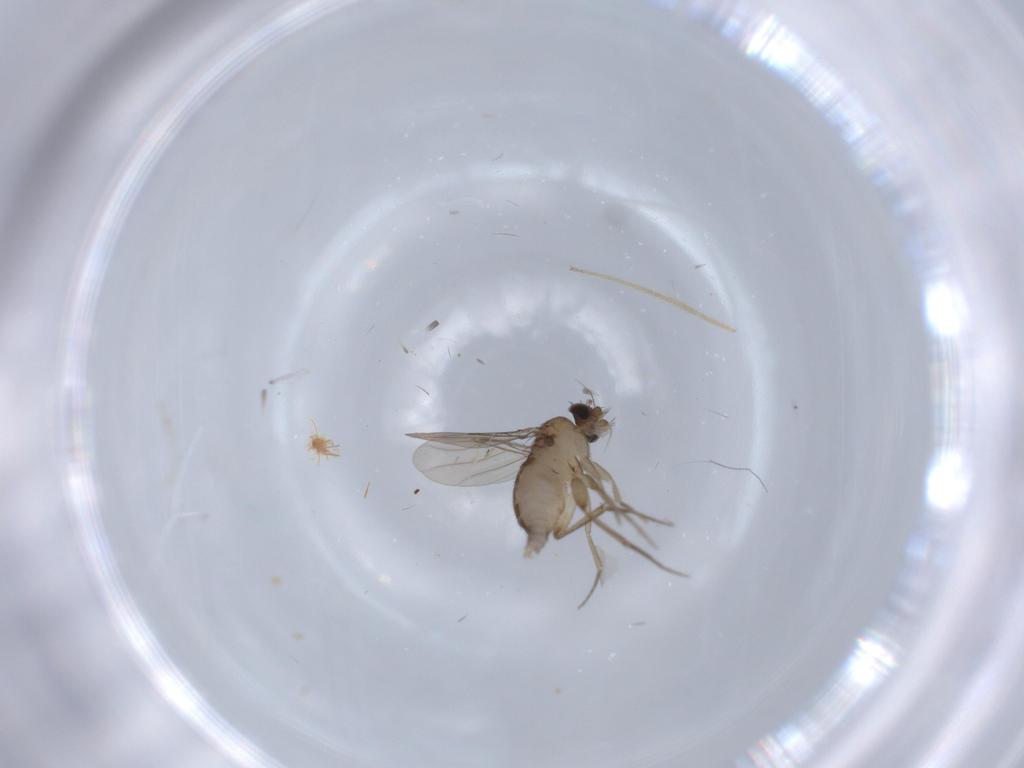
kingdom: Animalia
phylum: Arthropoda
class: Insecta
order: Diptera
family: Phoridae
